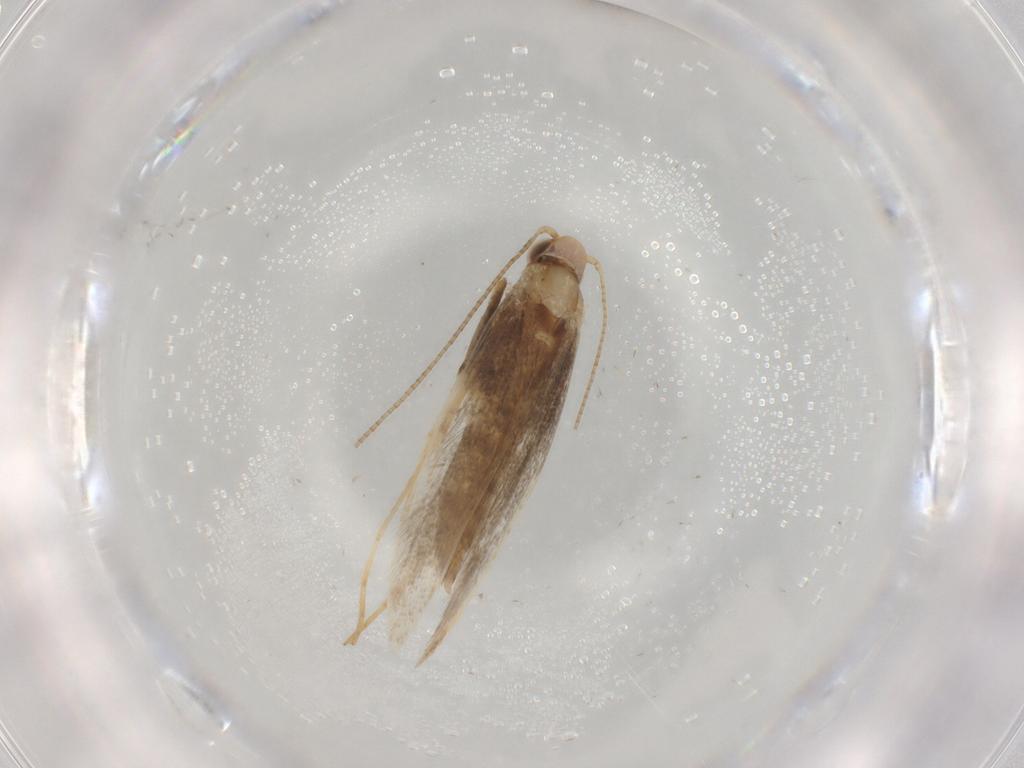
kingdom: Animalia
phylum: Arthropoda
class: Insecta
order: Lepidoptera
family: Gracillariidae
